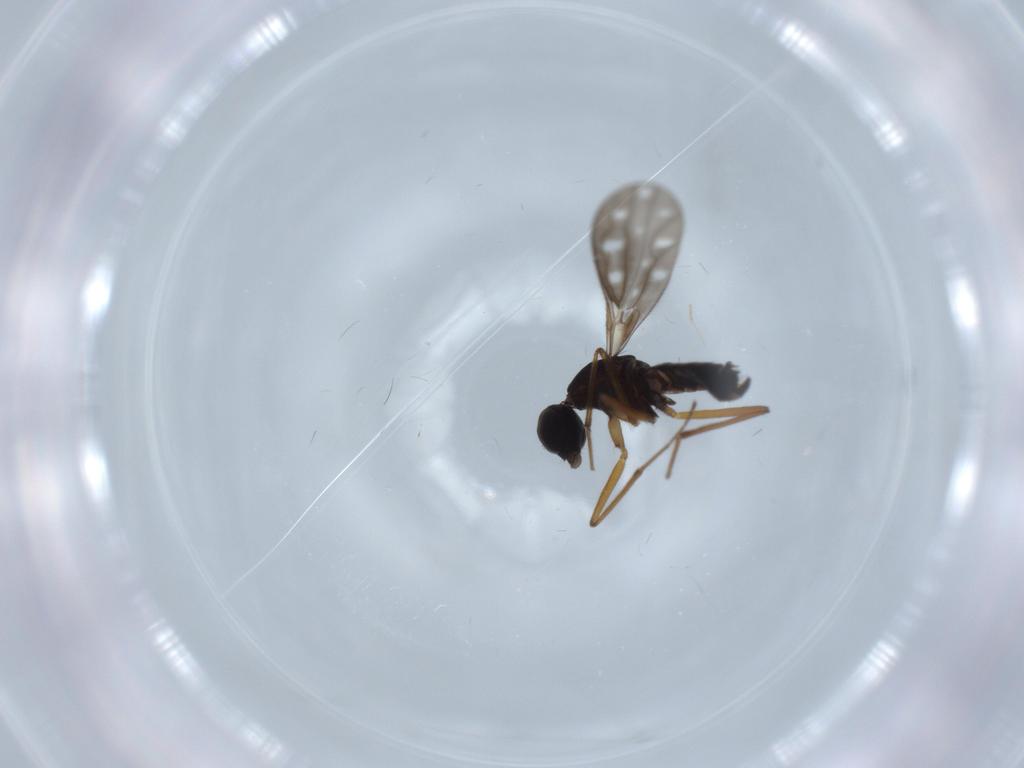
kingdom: Animalia
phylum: Arthropoda
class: Insecta
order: Diptera
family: Empididae
